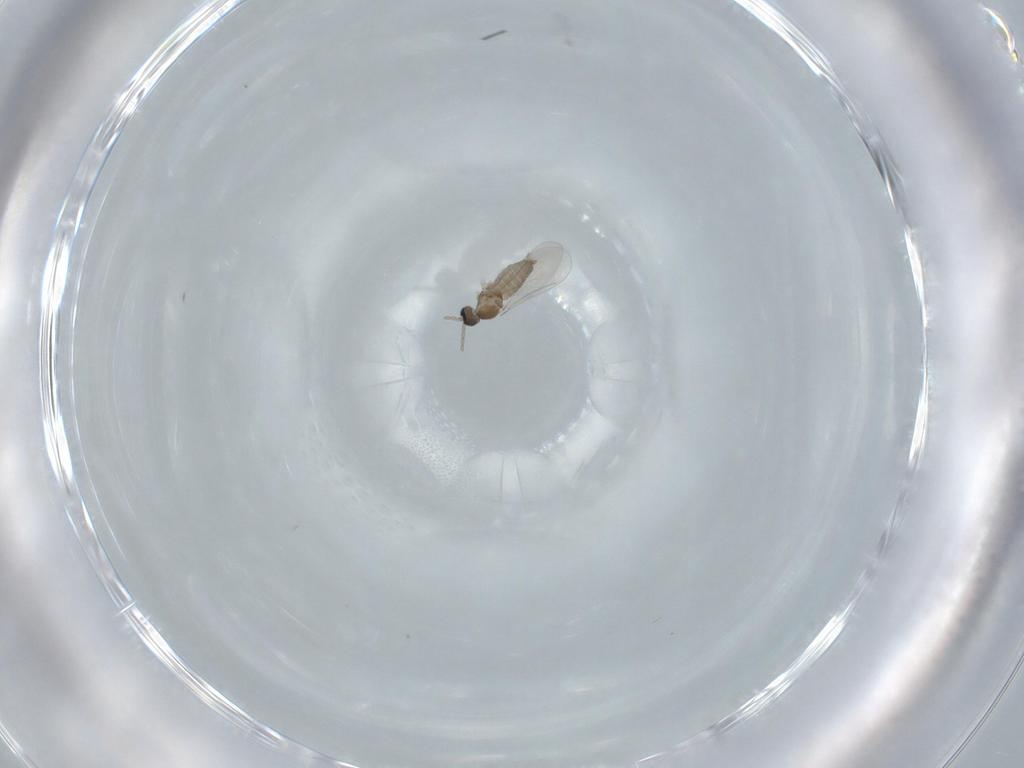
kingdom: Animalia
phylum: Arthropoda
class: Insecta
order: Diptera
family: Cecidomyiidae
